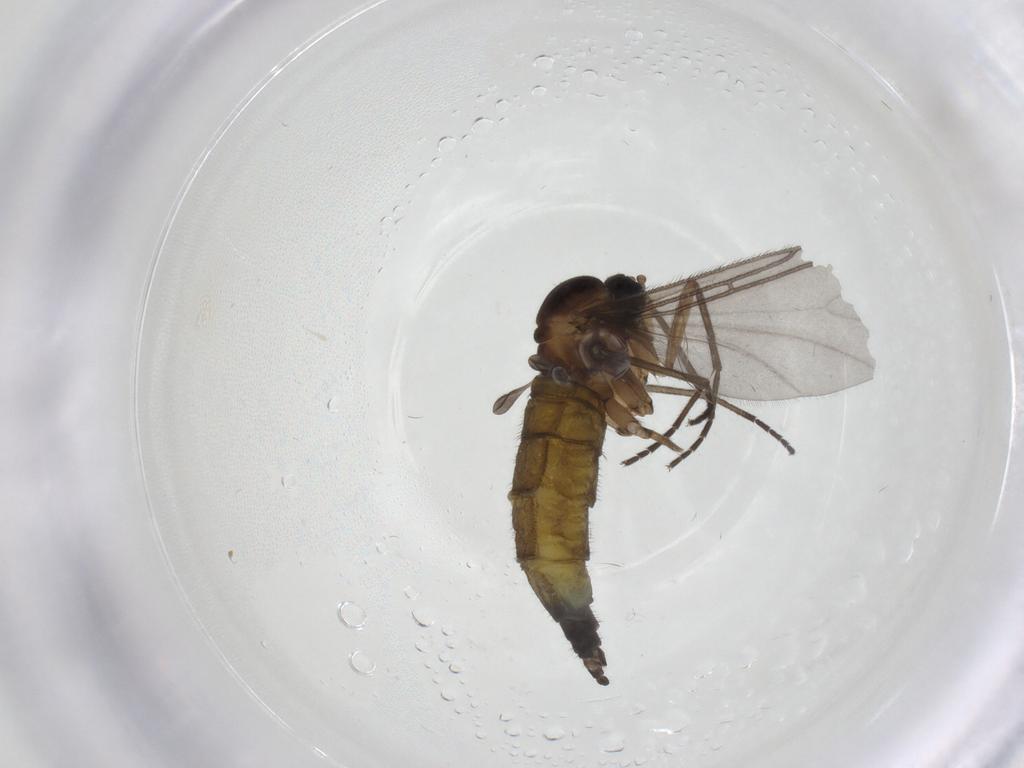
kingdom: Animalia
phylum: Arthropoda
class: Insecta
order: Diptera
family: Sciaridae
